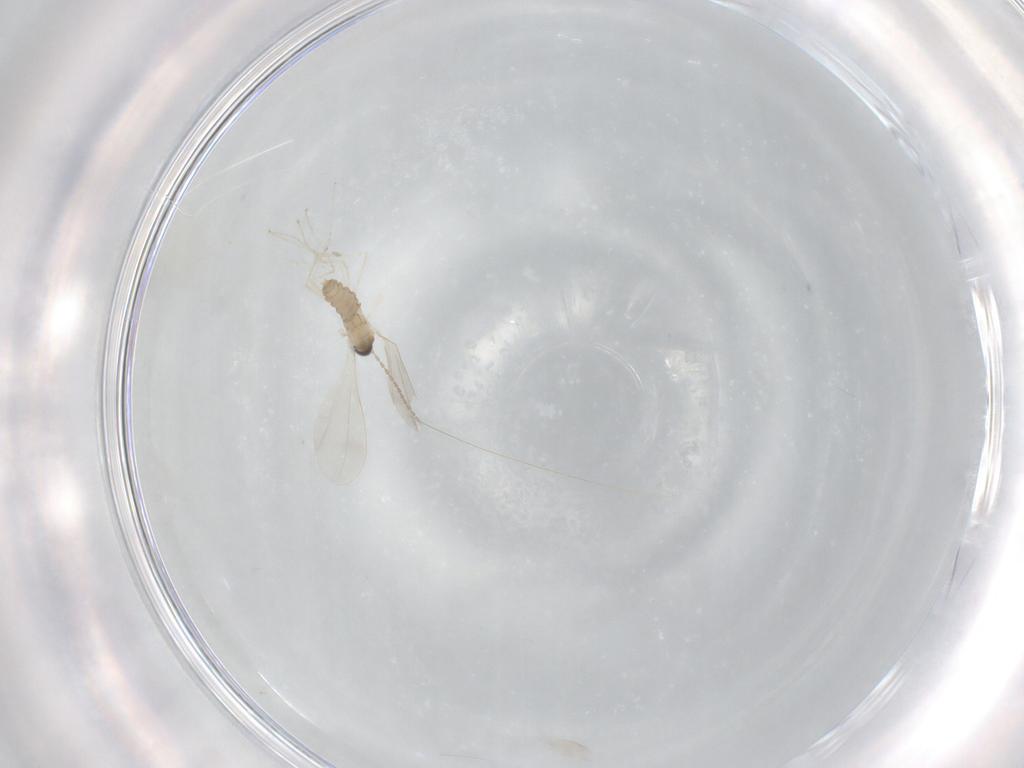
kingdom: Animalia
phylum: Arthropoda
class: Insecta
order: Diptera
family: Cecidomyiidae
